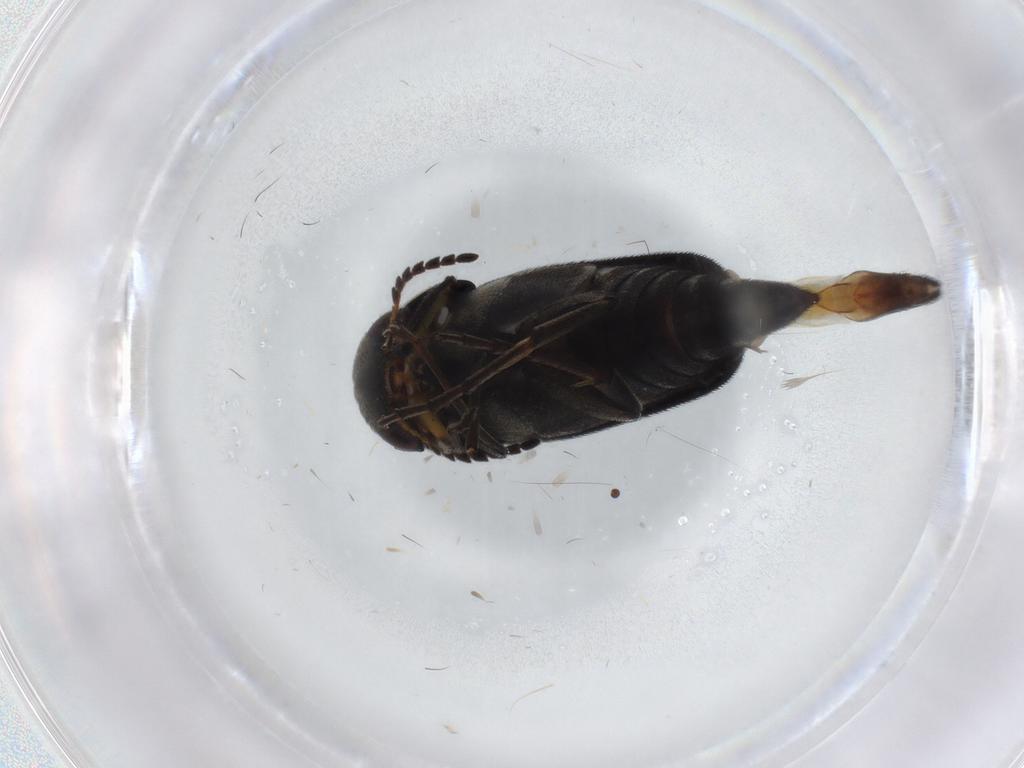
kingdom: Animalia
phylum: Arthropoda
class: Insecta
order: Coleoptera
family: Mordellidae
